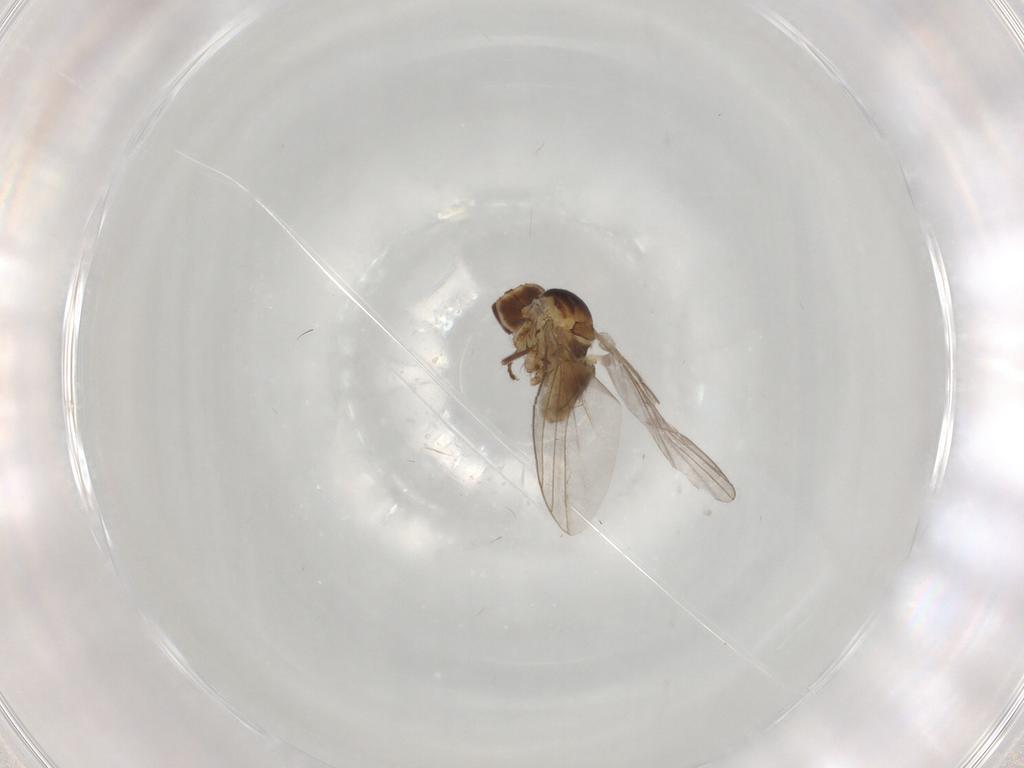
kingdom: Animalia
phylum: Arthropoda
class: Insecta
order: Diptera
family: Agromyzidae
